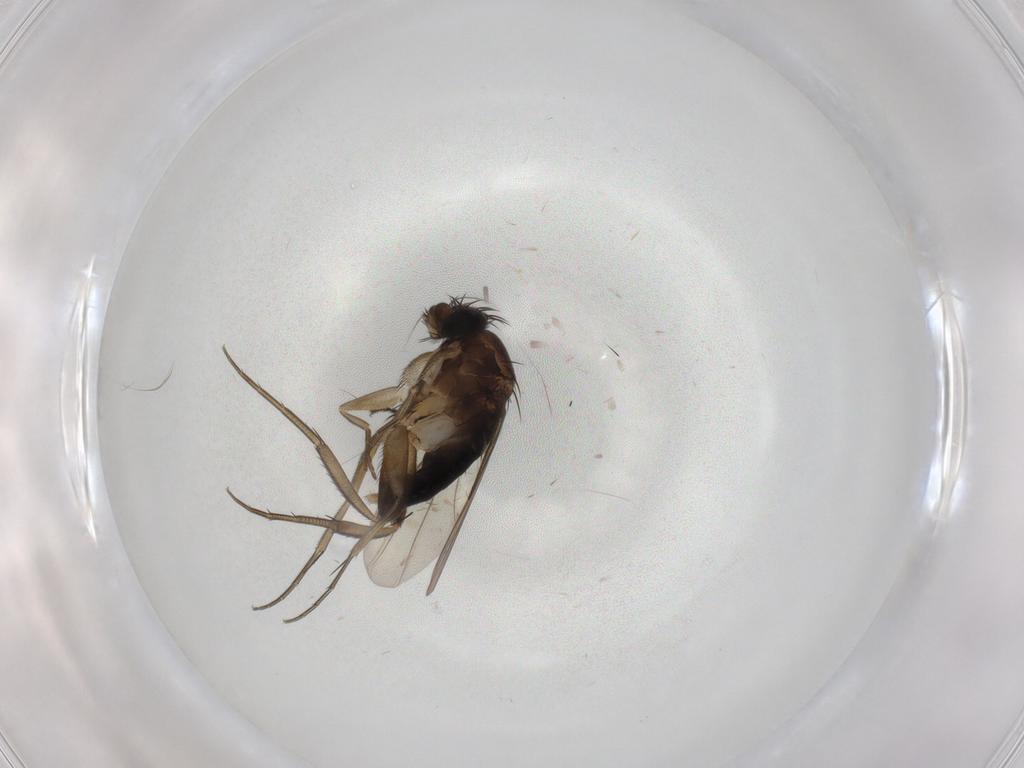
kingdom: Animalia
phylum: Arthropoda
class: Insecta
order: Diptera
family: Phoridae
